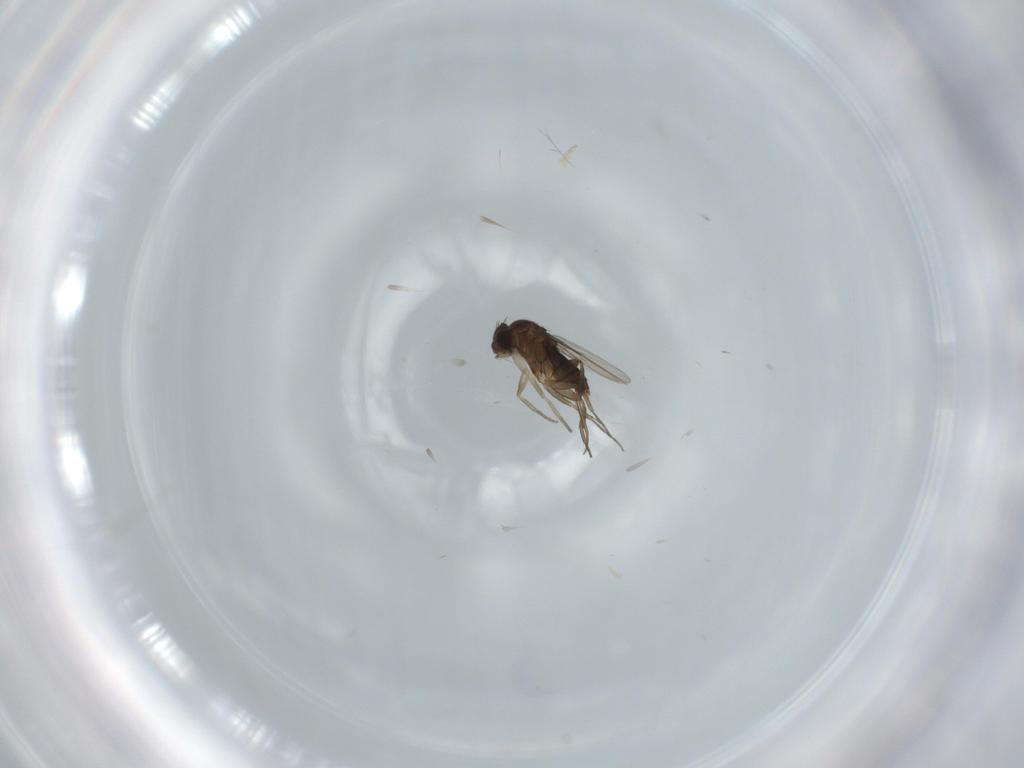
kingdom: Animalia
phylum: Arthropoda
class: Insecta
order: Diptera
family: Phoridae
